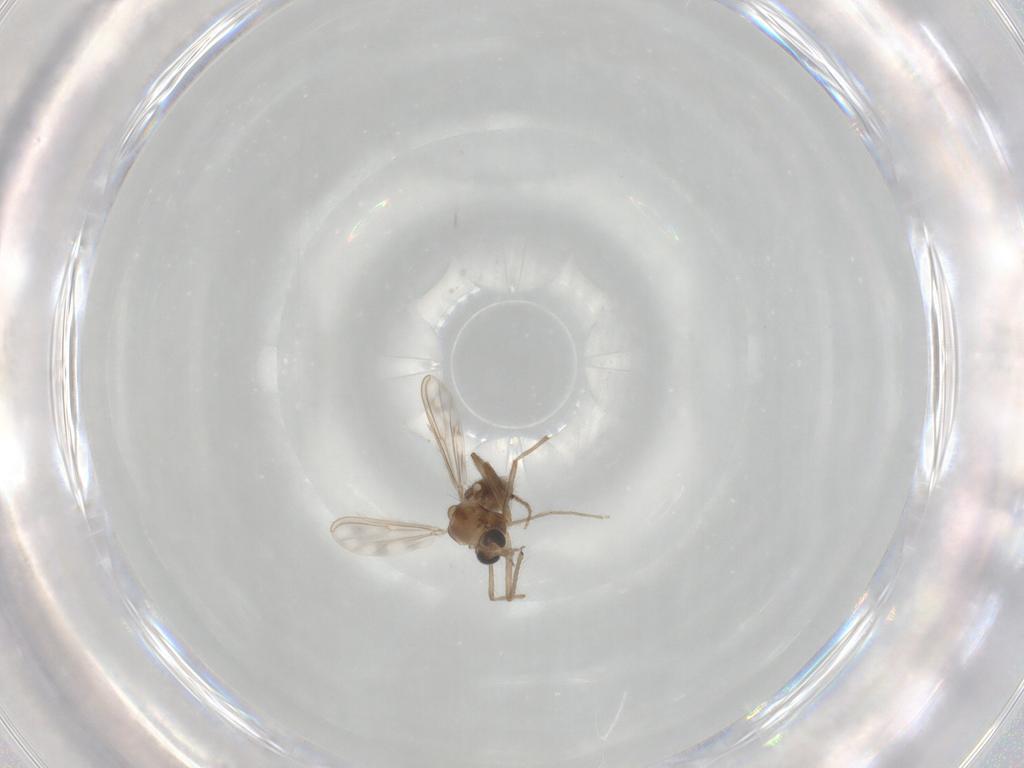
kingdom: Animalia
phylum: Arthropoda
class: Insecta
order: Diptera
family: Chironomidae
